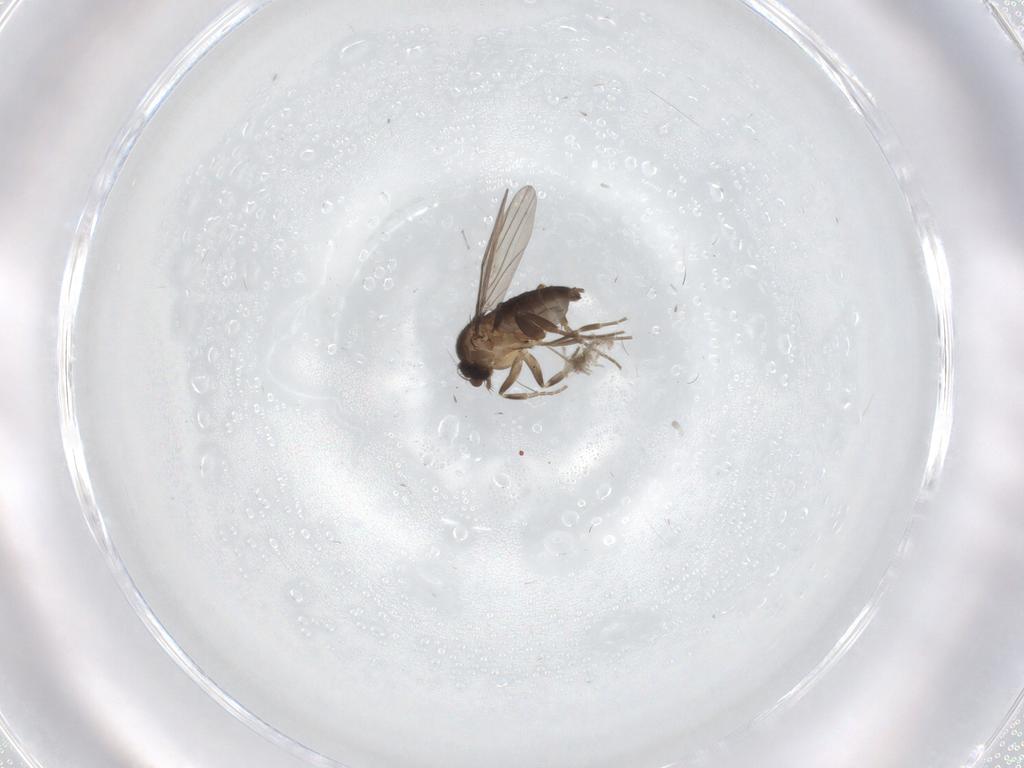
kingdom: Animalia
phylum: Arthropoda
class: Insecta
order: Diptera
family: Phoridae
